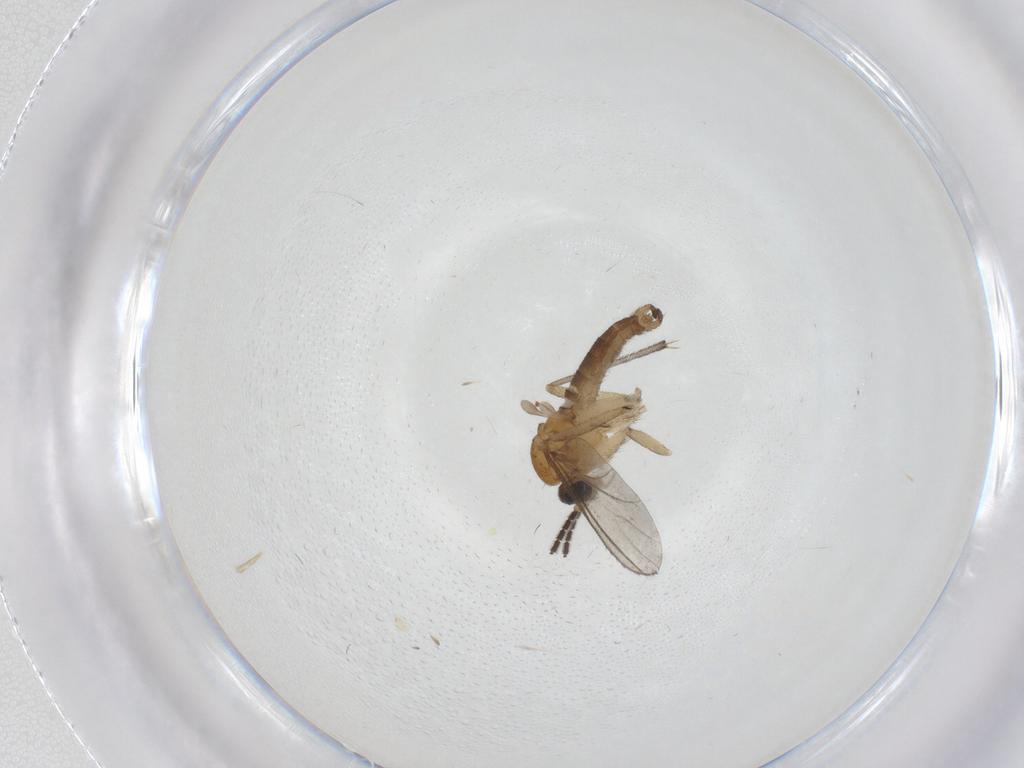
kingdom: Animalia
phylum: Arthropoda
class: Insecta
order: Diptera
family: Sciaridae
